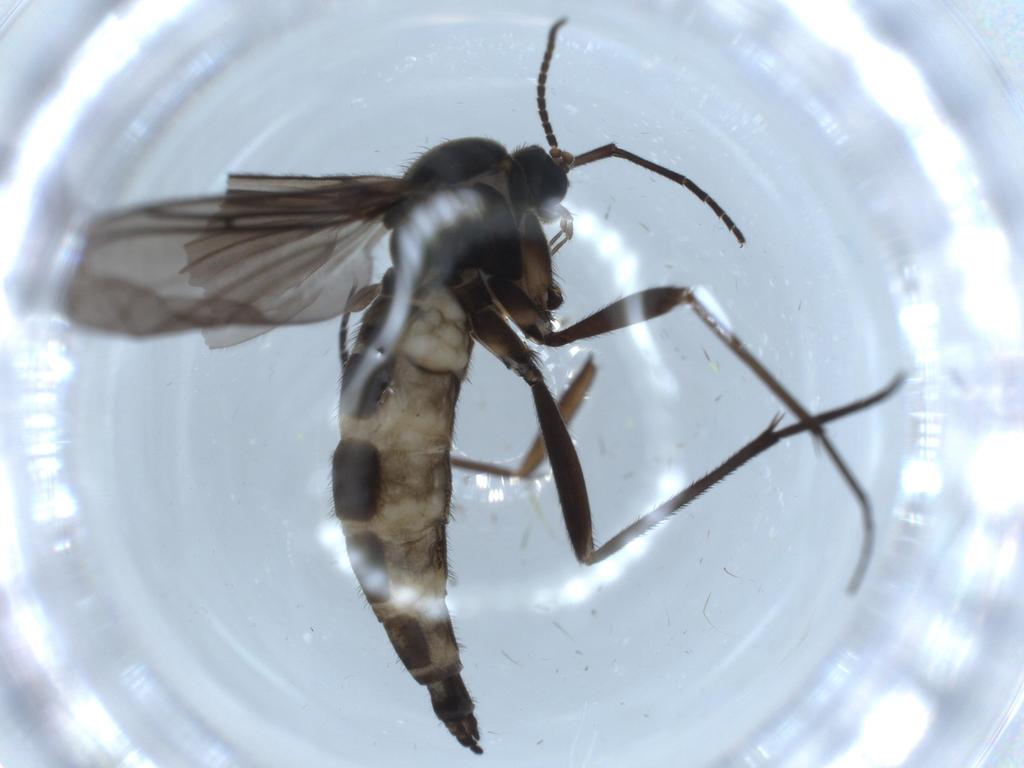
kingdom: Animalia
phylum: Arthropoda
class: Insecta
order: Diptera
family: Sciaridae
